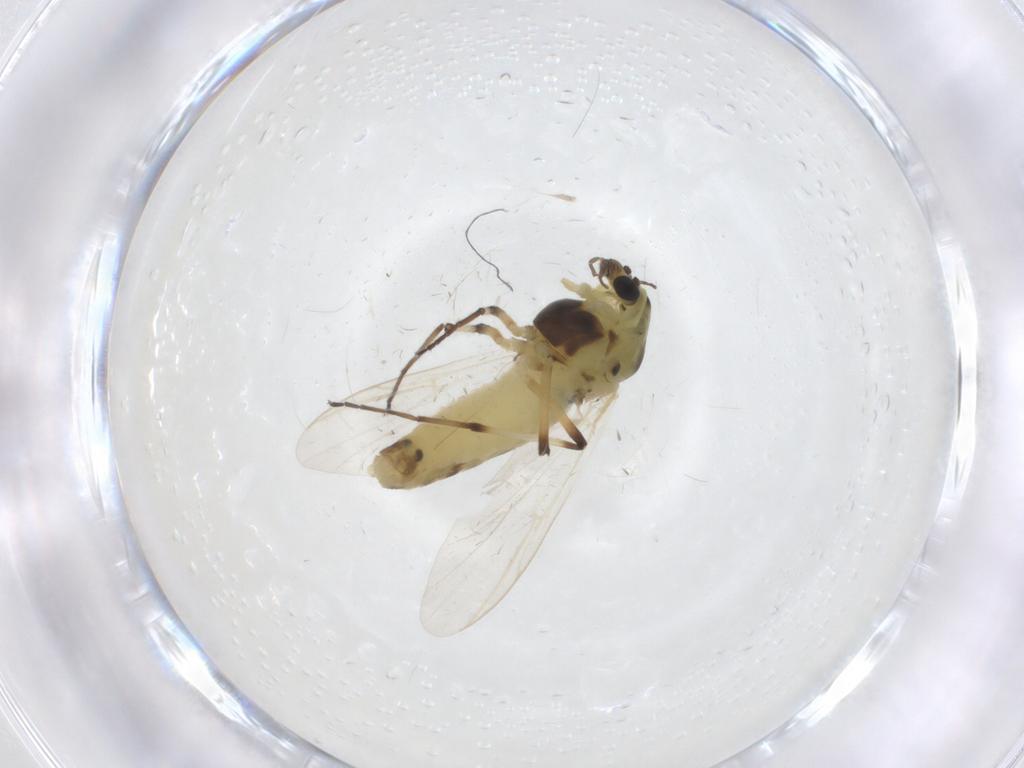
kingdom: Animalia
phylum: Arthropoda
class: Insecta
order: Diptera
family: Chironomidae
